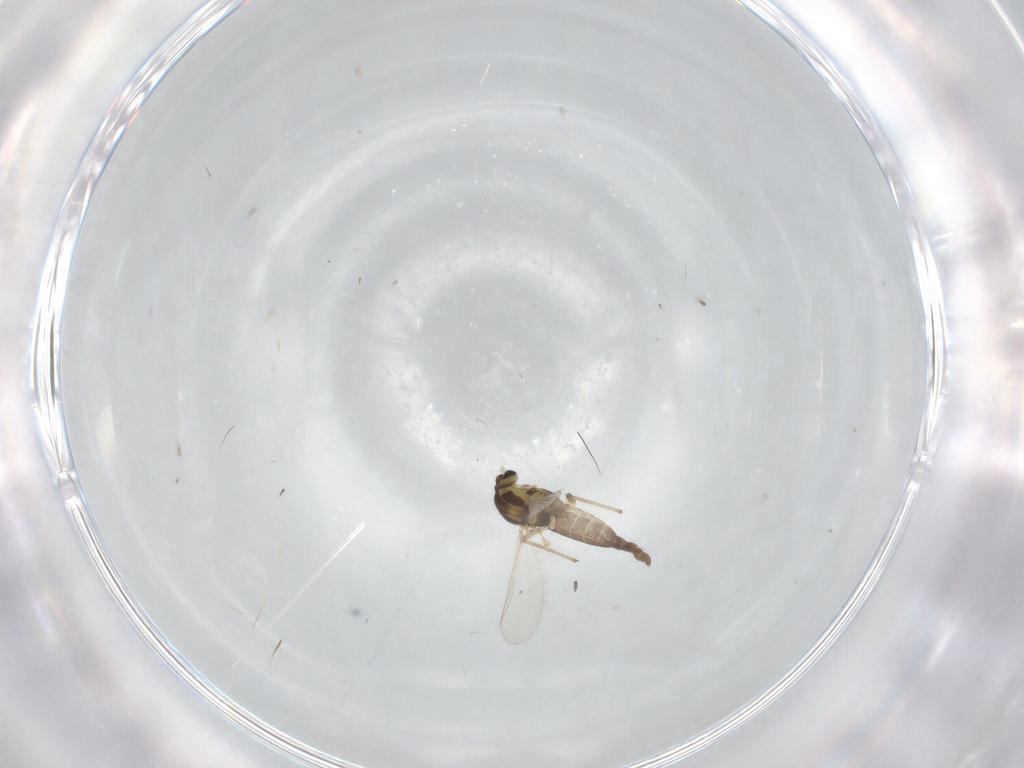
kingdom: Animalia
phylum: Arthropoda
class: Insecta
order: Diptera
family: Chironomidae
